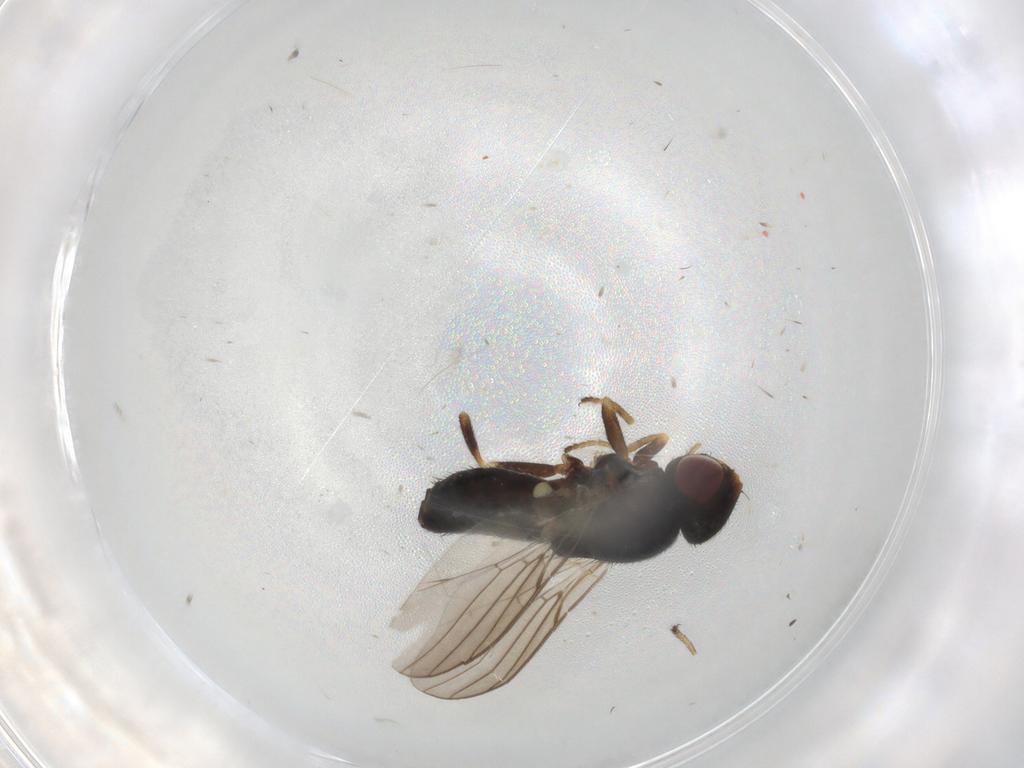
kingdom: Animalia
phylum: Arthropoda
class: Insecta
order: Diptera
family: Chloropidae
